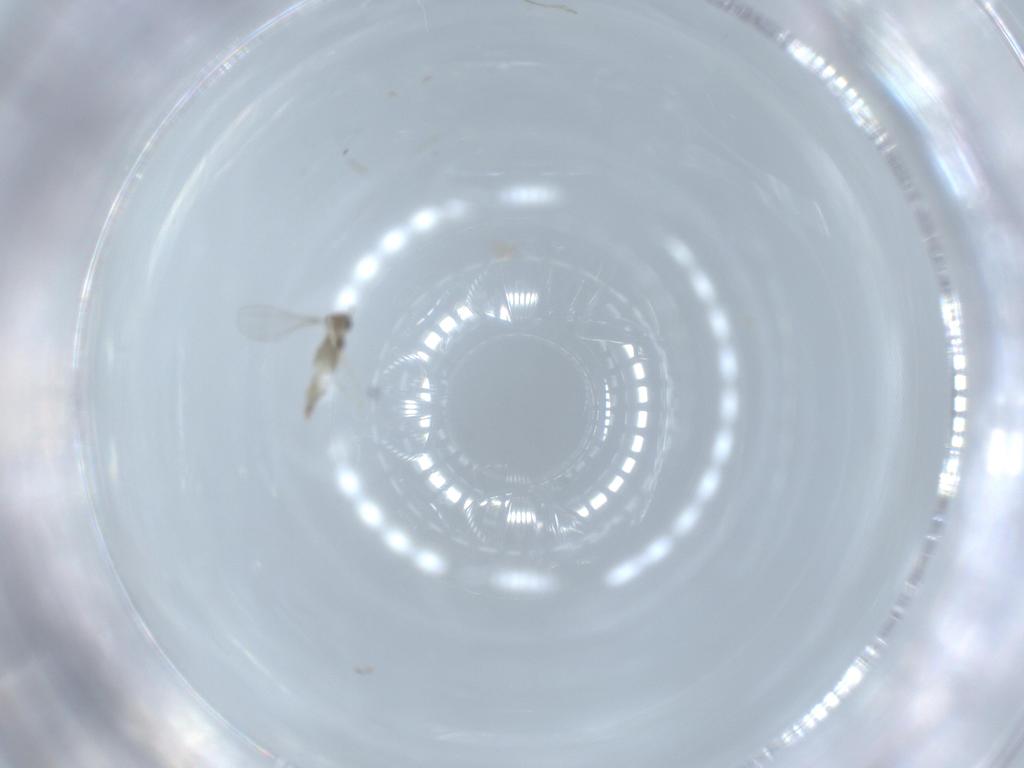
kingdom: Animalia
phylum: Arthropoda
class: Insecta
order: Diptera
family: Cecidomyiidae
